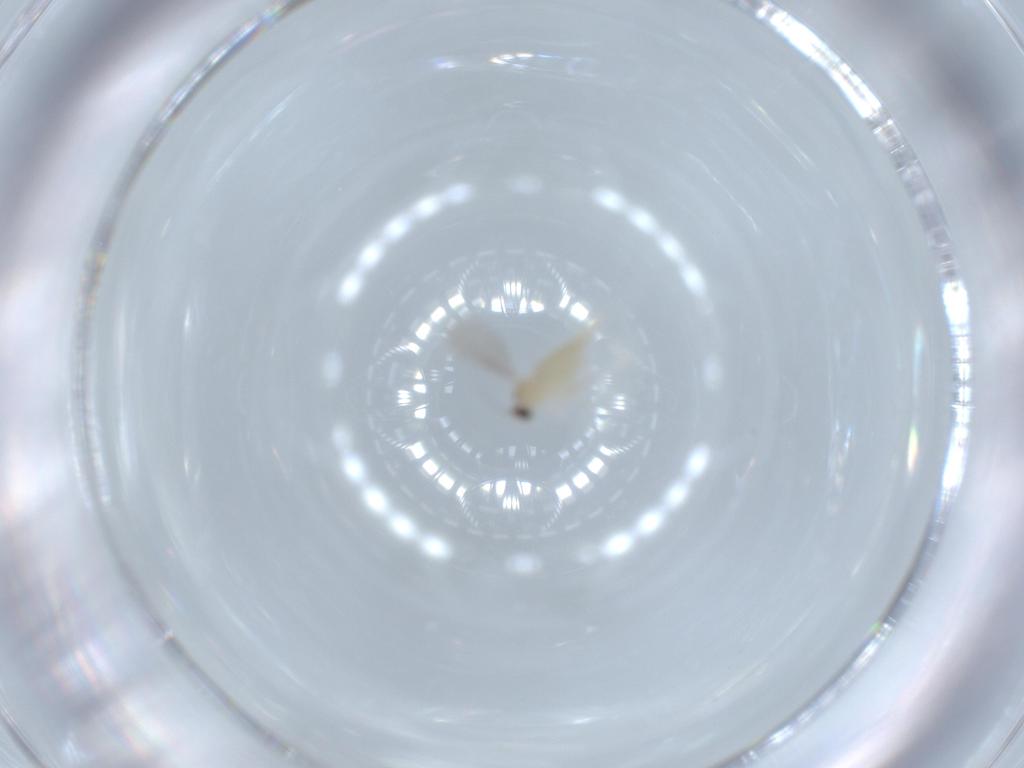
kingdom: Animalia
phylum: Arthropoda
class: Insecta
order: Diptera
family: Cecidomyiidae
